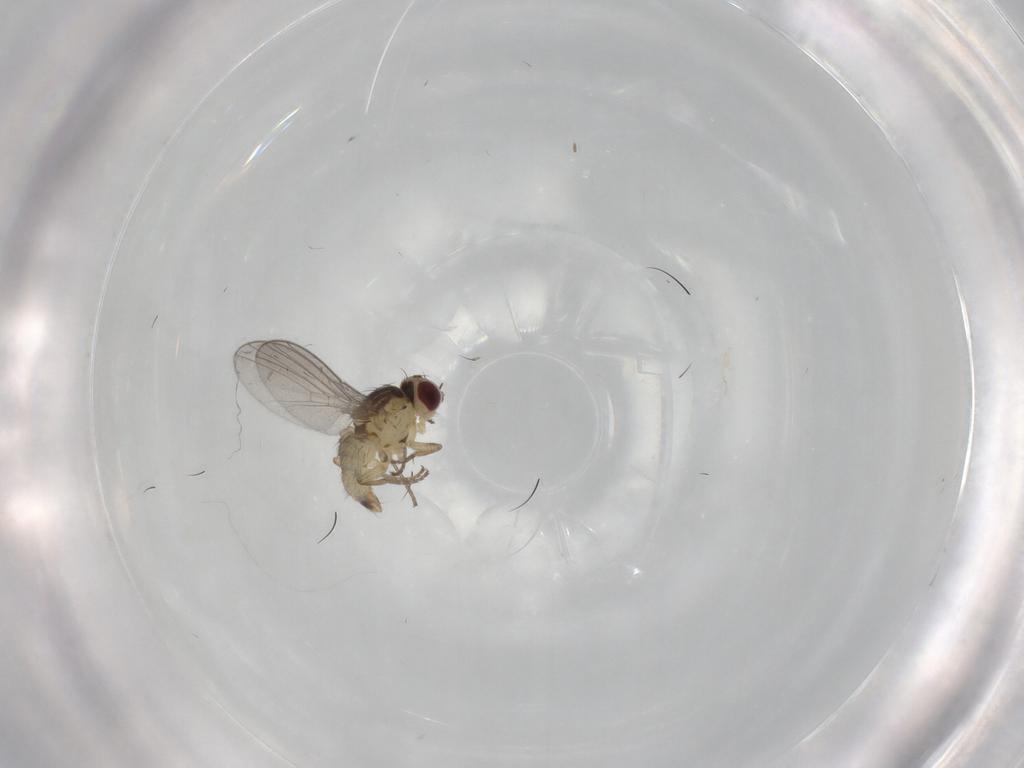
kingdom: Animalia
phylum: Arthropoda
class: Insecta
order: Diptera
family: Agromyzidae
